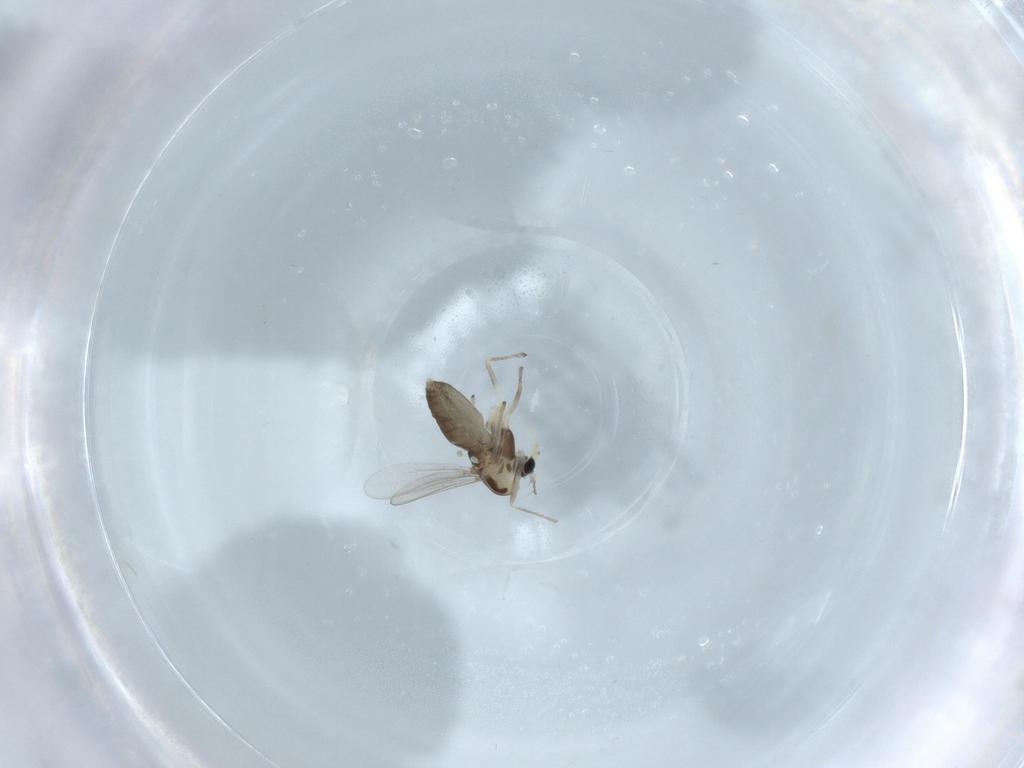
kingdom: Animalia
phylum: Arthropoda
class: Insecta
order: Diptera
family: Chironomidae
